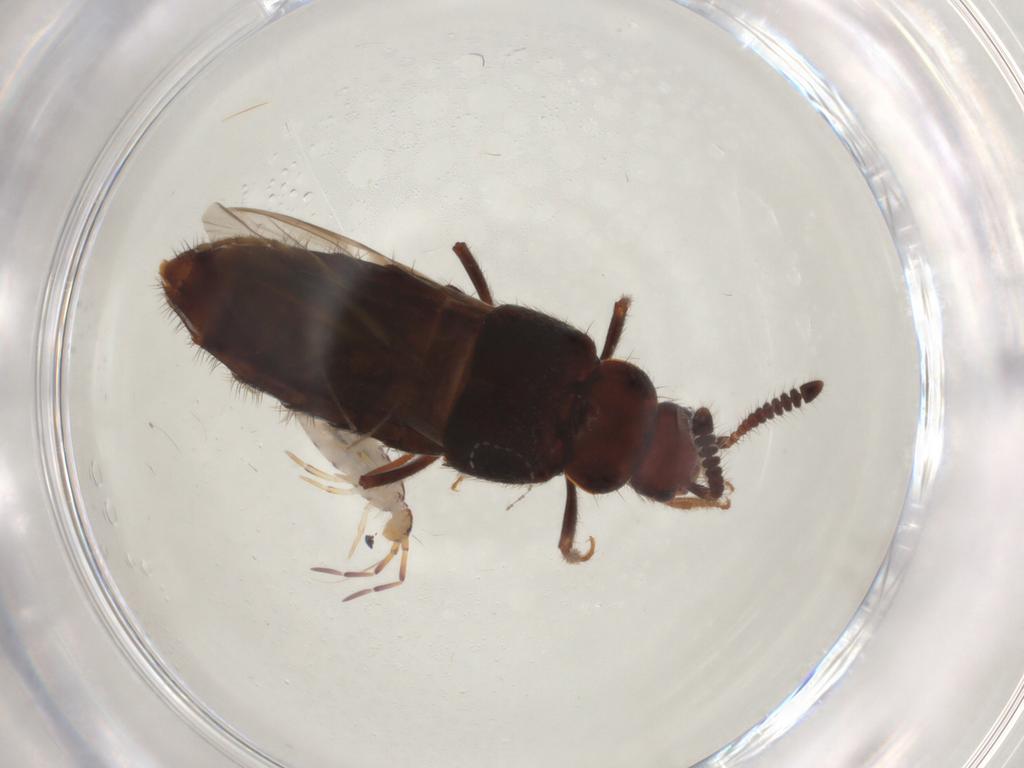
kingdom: Animalia
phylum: Arthropoda
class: Insecta
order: Coleoptera
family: Staphylinidae
